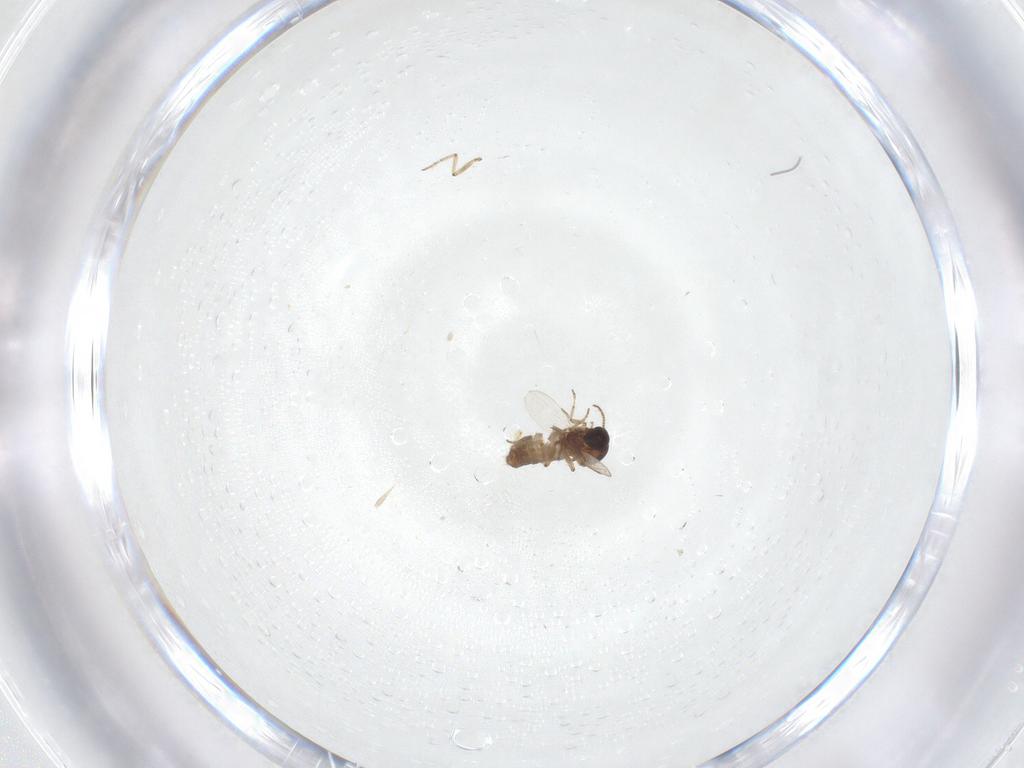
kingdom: Animalia
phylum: Arthropoda
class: Insecta
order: Diptera
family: Ceratopogonidae
